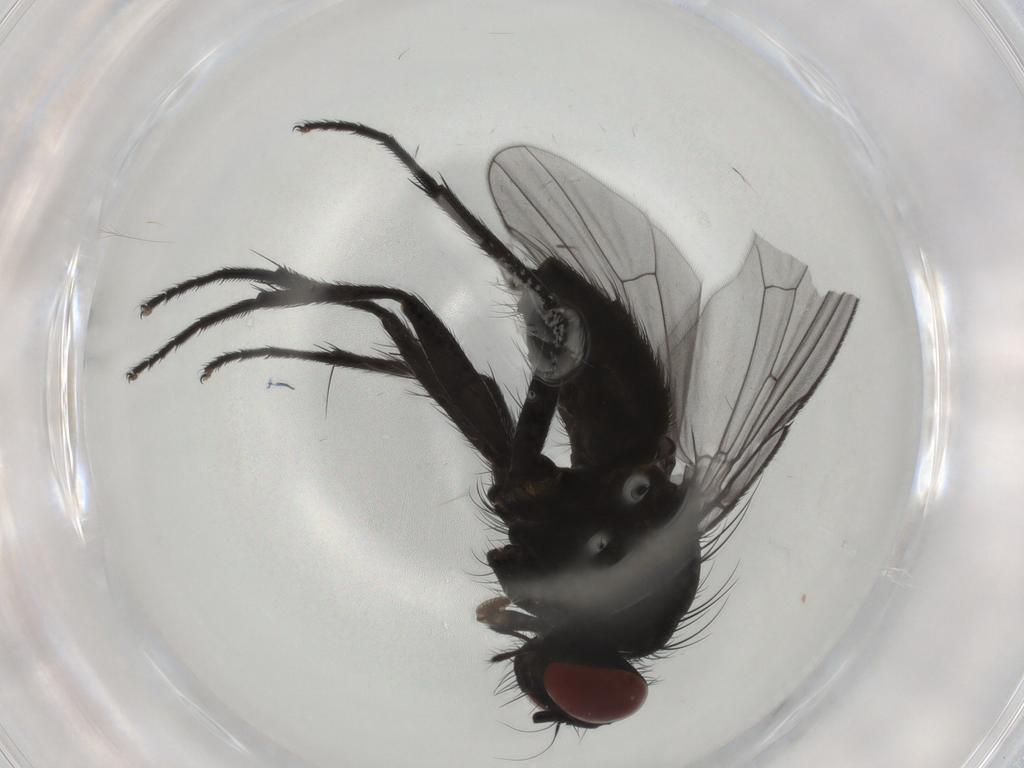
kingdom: Animalia
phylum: Arthropoda
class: Insecta
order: Diptera
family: Muscidae
